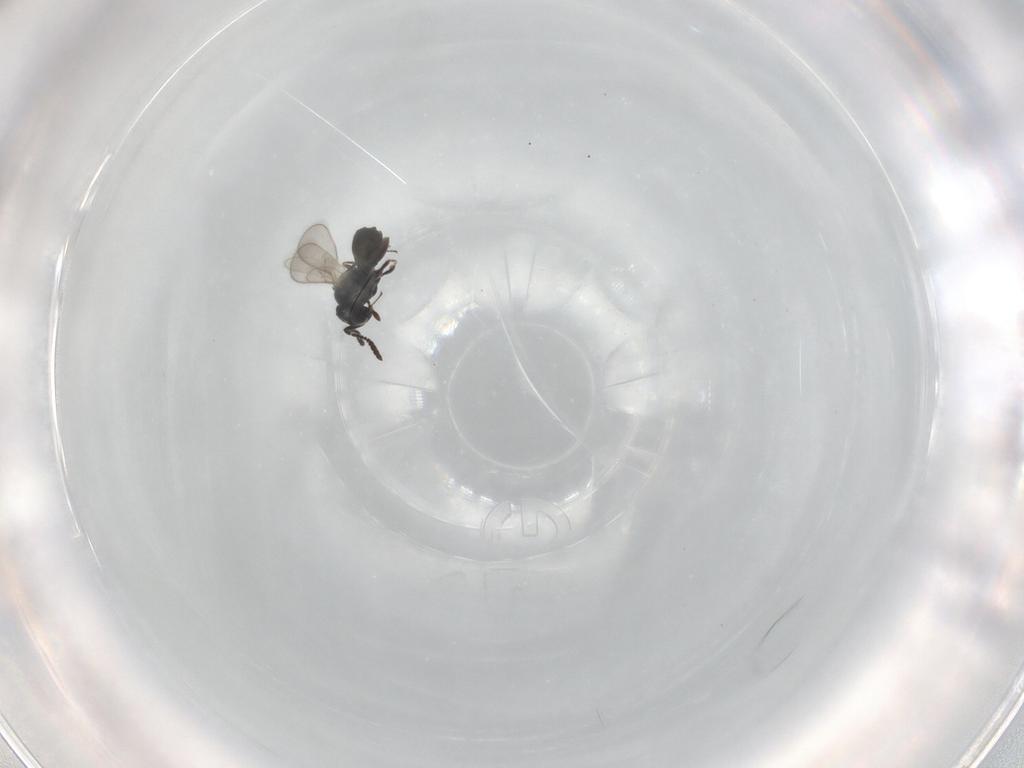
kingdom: Animalia
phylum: Arthropoda
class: Insecta
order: Hymenoptera
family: Scelionidae
